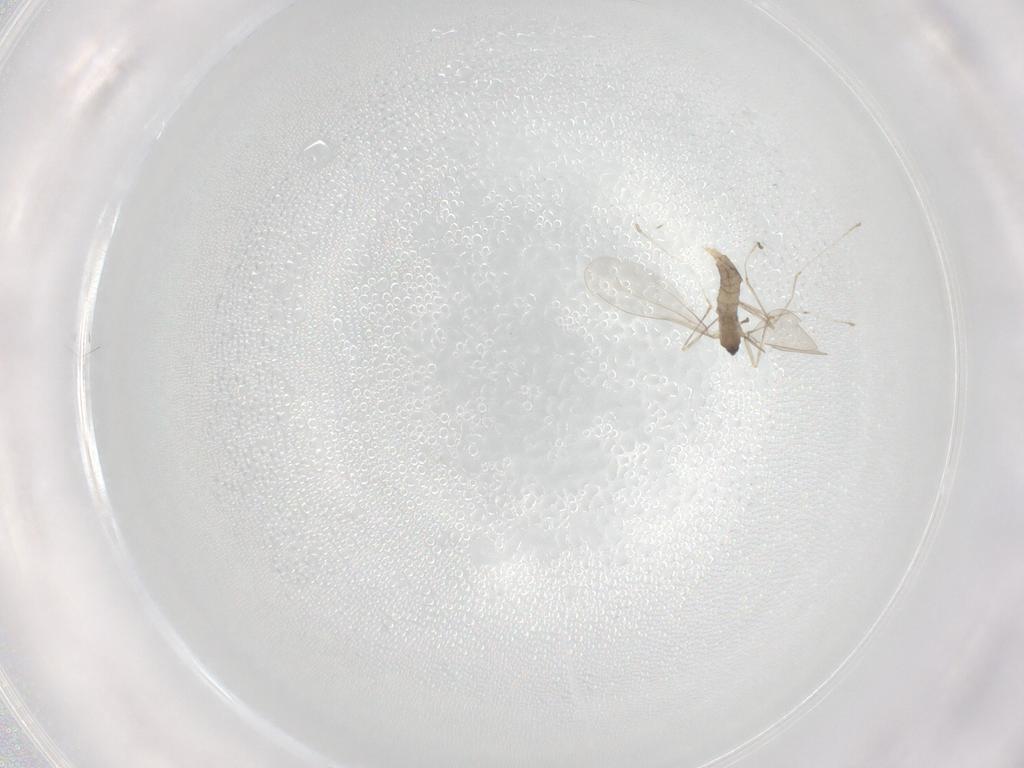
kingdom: Animalia
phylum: Arthropoda
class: Insecta
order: Diptera
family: Cecidomyiidae
